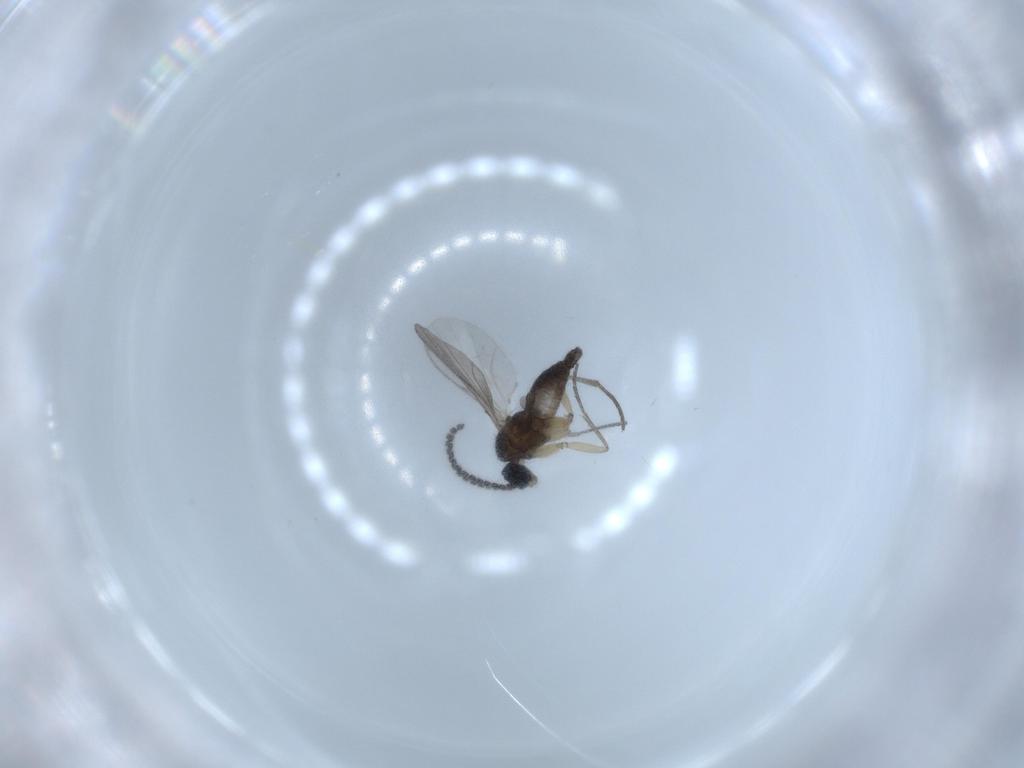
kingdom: Animalia
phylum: Arthropoda
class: Insecta
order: Diptera
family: Sciaridae
